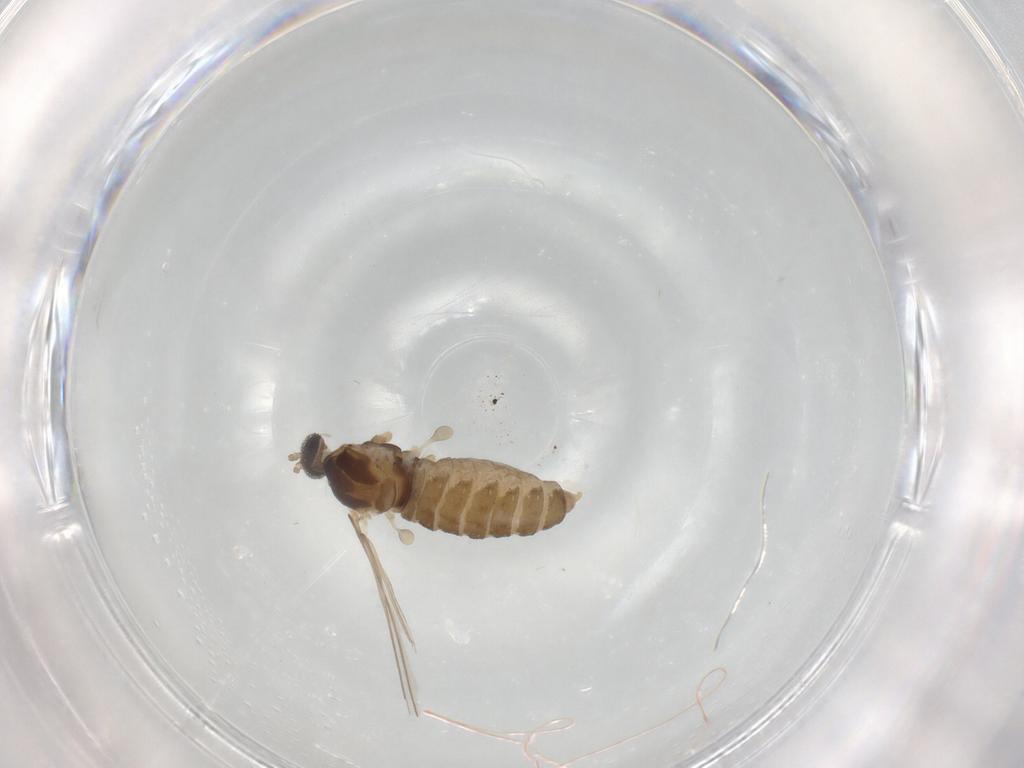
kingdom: Animalia
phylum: Arthropoda
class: Insecta
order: Diptera
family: Cecidomyiidae
